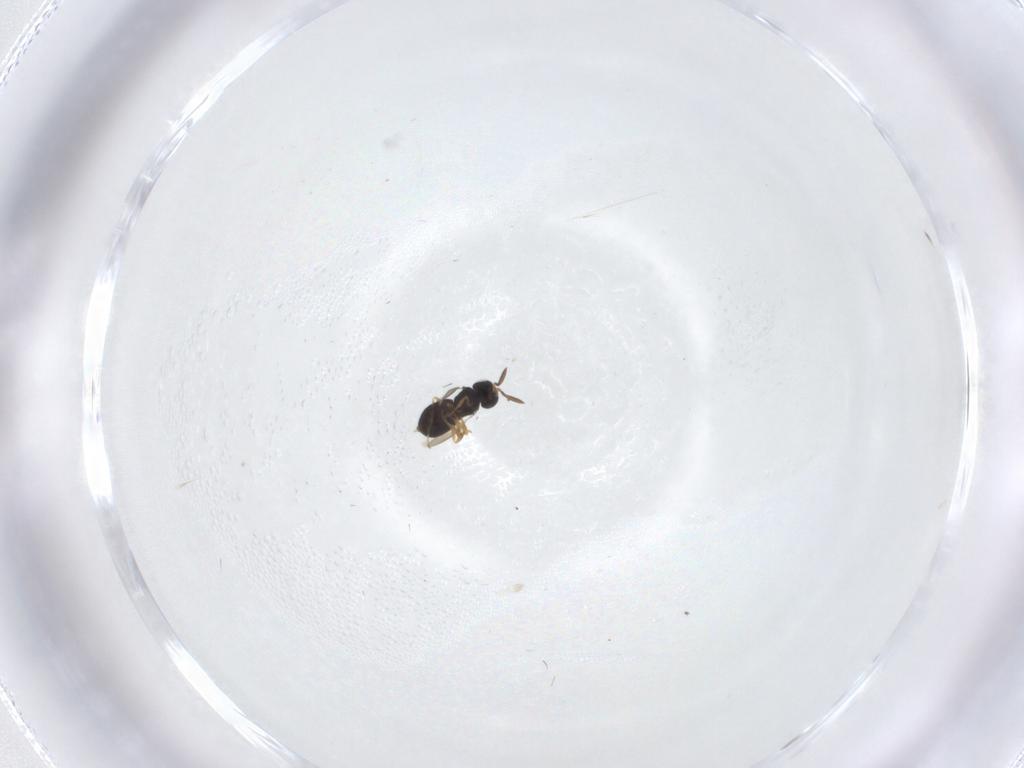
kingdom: Animalia
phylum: Arthropoda
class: Insecta
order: Hymenoptera
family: Scelionidae
